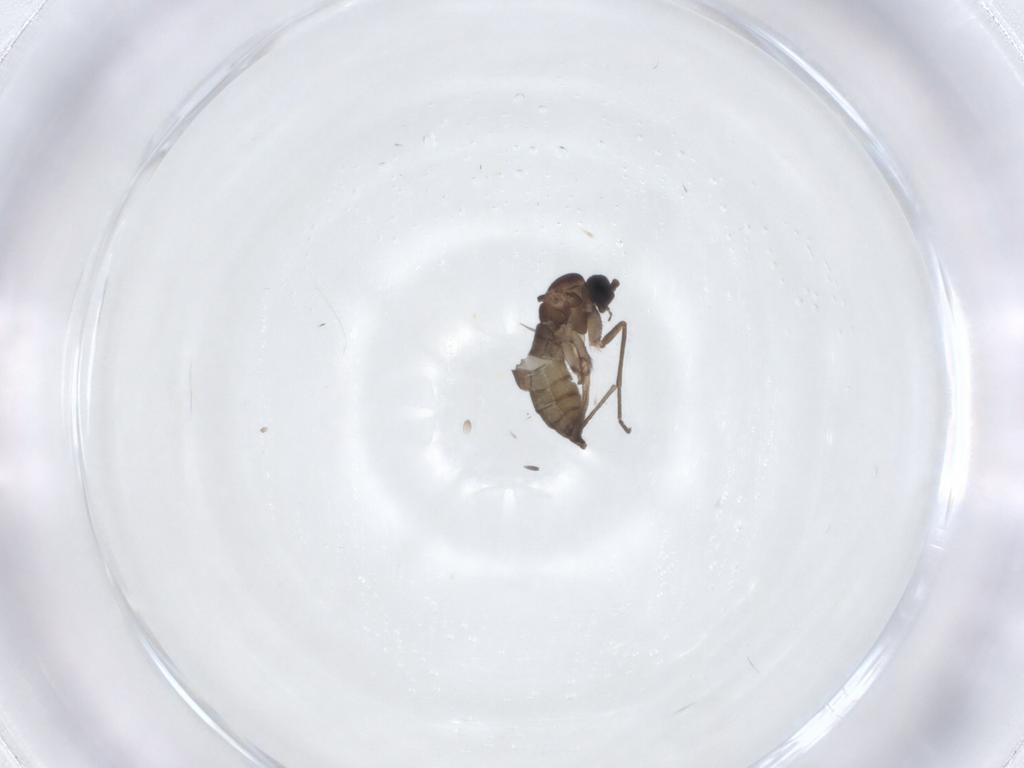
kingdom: Animalia
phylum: Arthropoda
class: Insecta
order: Diptera
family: Sciaridae
